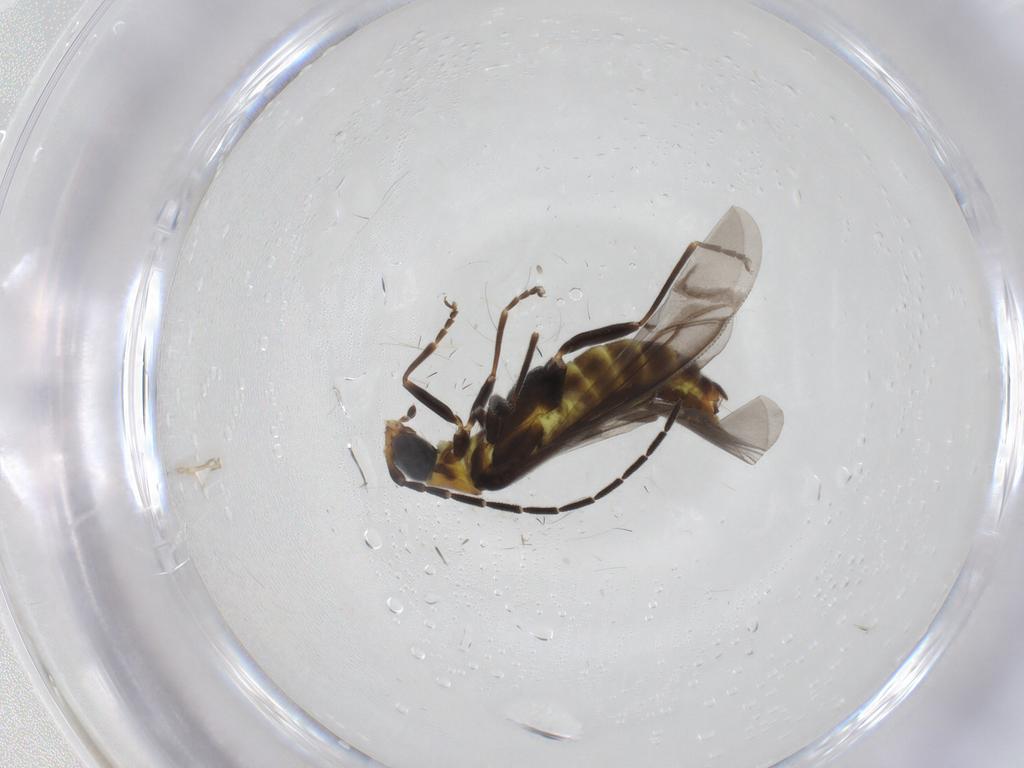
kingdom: Animalia
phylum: Arthropoda
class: Insecta
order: Coleoptera
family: Cantharidae
